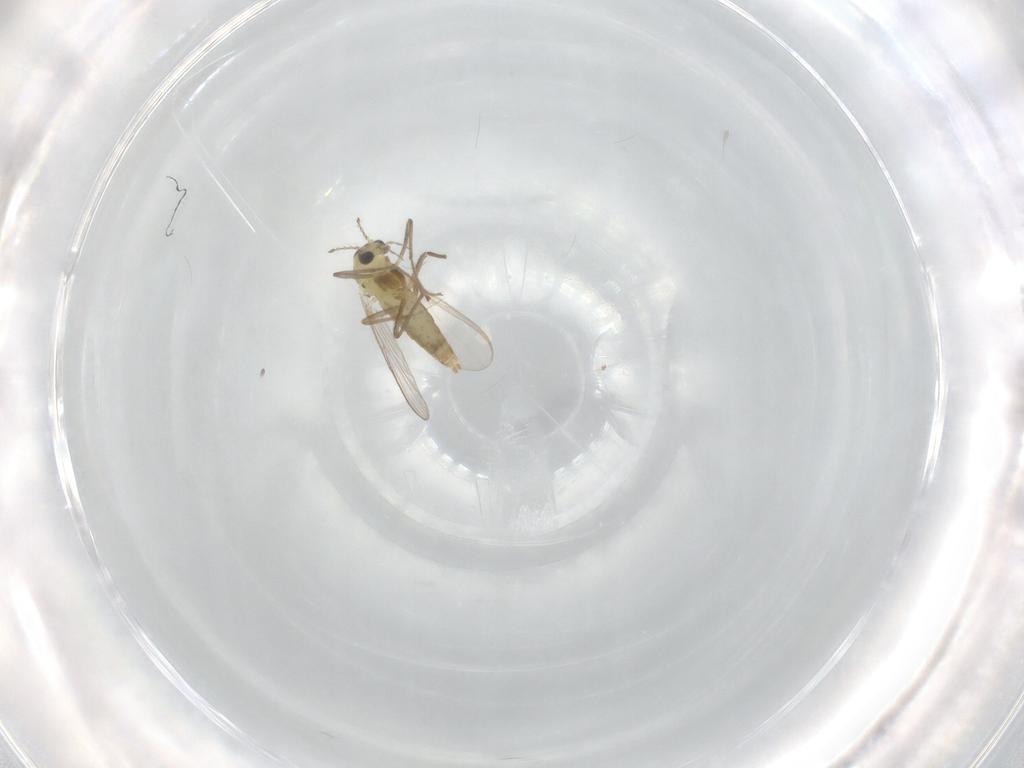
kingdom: Animalia
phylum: Arthropoda
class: Insecta
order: Diptera
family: Chironomidae
